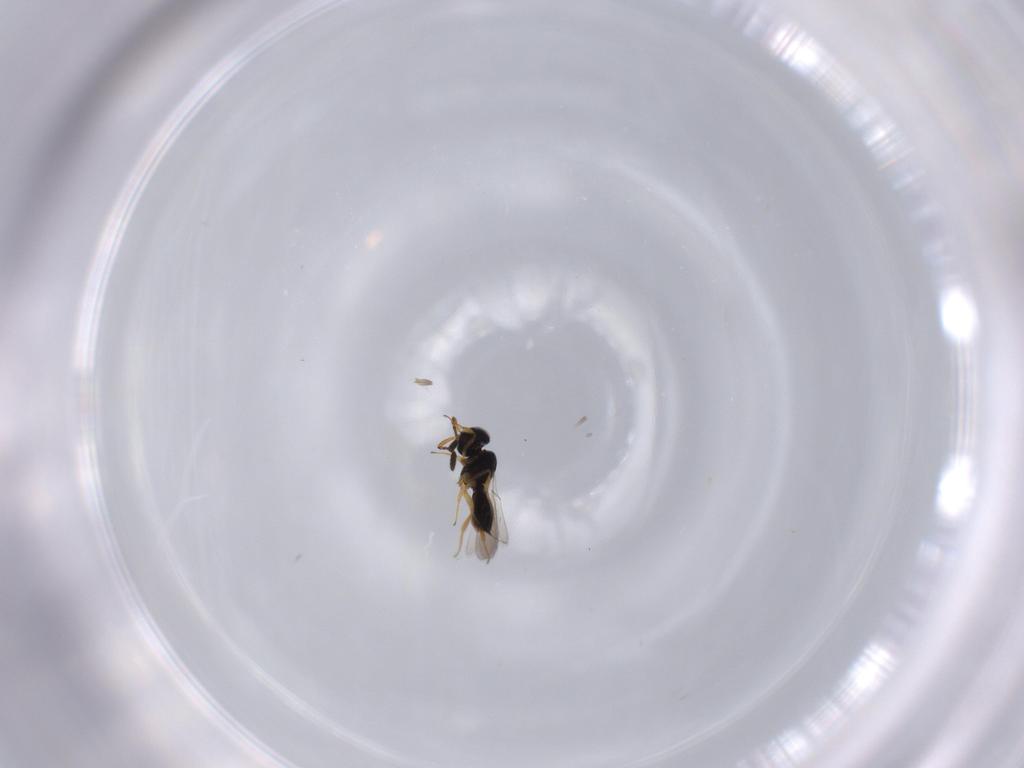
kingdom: Animalia
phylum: Arthropoda
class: Insecta
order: Hymenoptera
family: Scelionidae
